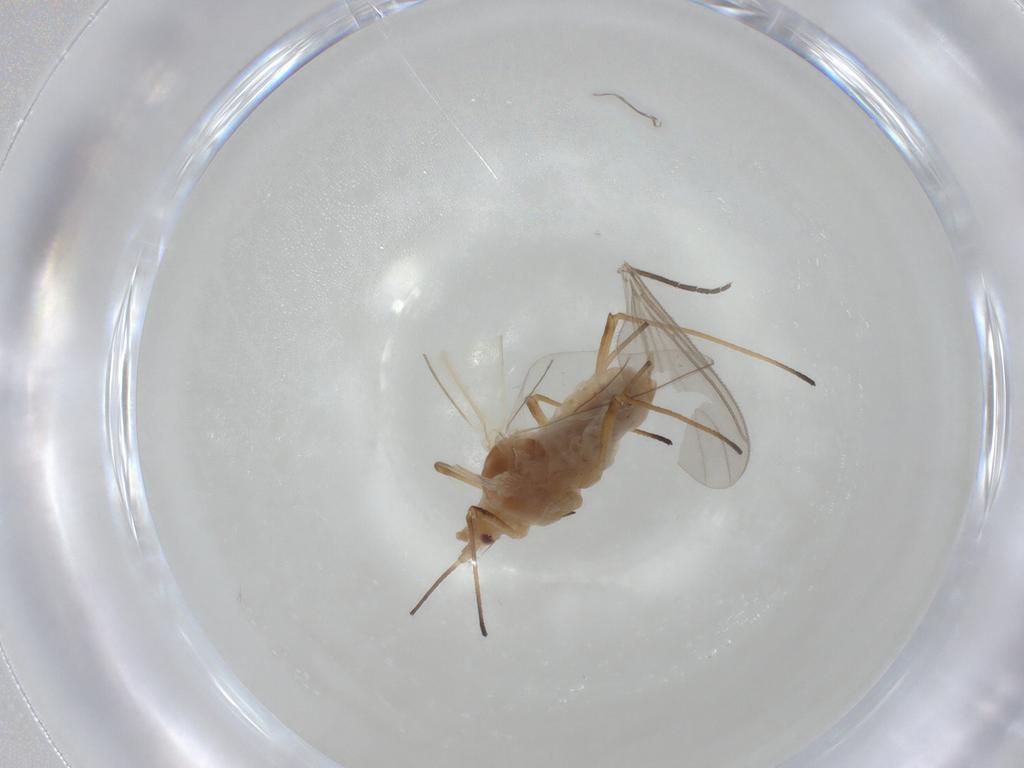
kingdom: Animalia
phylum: Arthropoda
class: Insecta
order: Hemiptera
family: Aphididae
